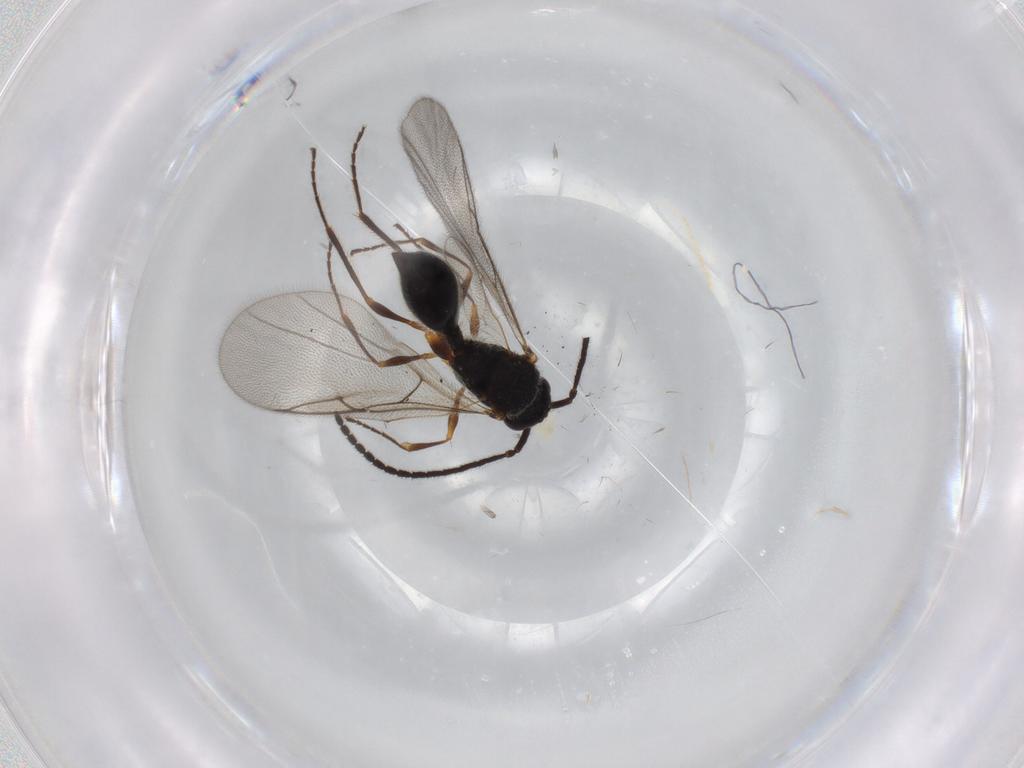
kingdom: Animalia
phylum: Arthropoda
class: Insecta
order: Hymenoptera
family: Diapriidae
